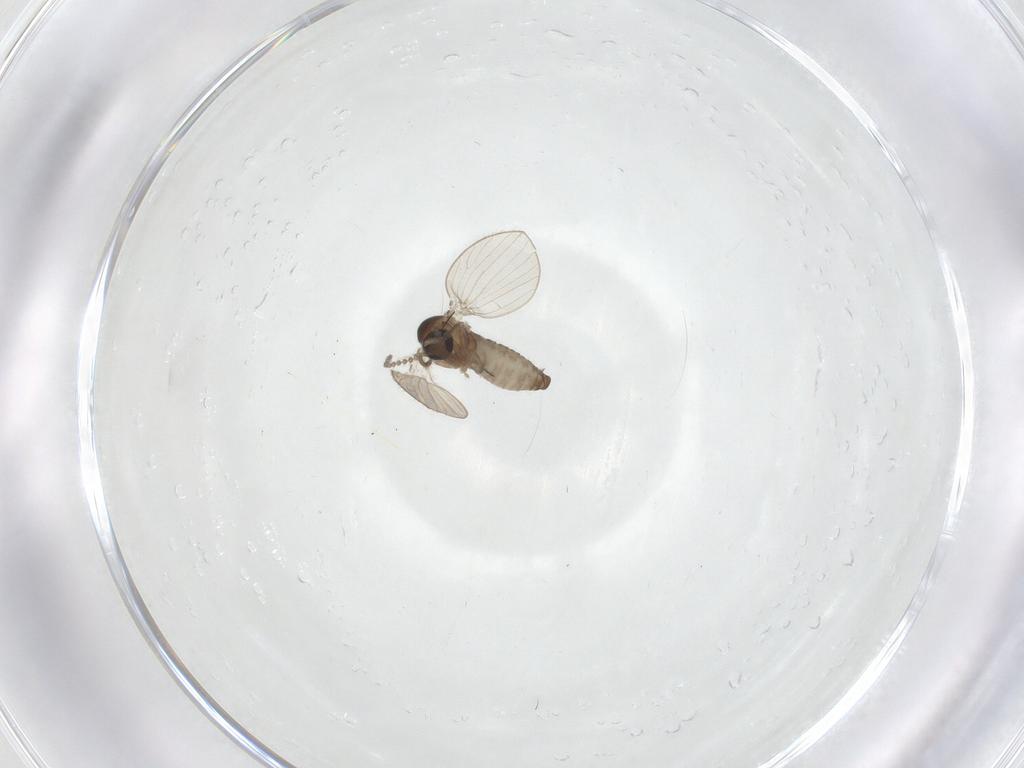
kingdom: Animalia
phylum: Arthropoda
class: Insecta
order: Diptera
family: Psychodidae
